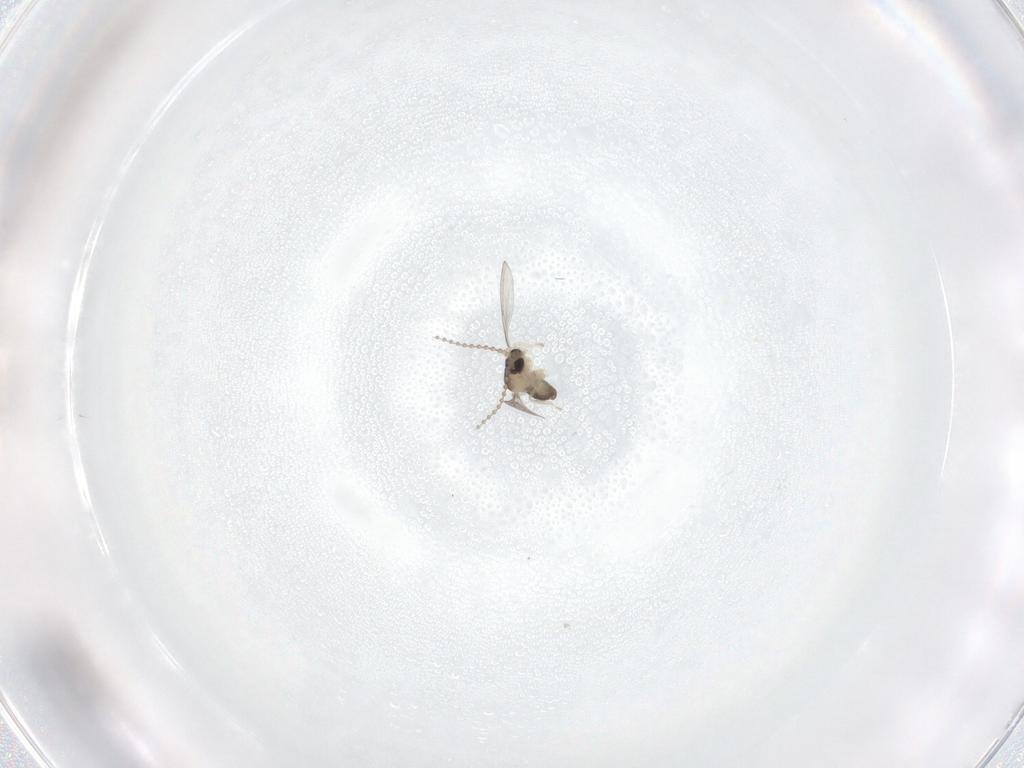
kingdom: Animalia
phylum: Arthropoda
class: Insecta
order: Diptera
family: Cecidomyiidae
